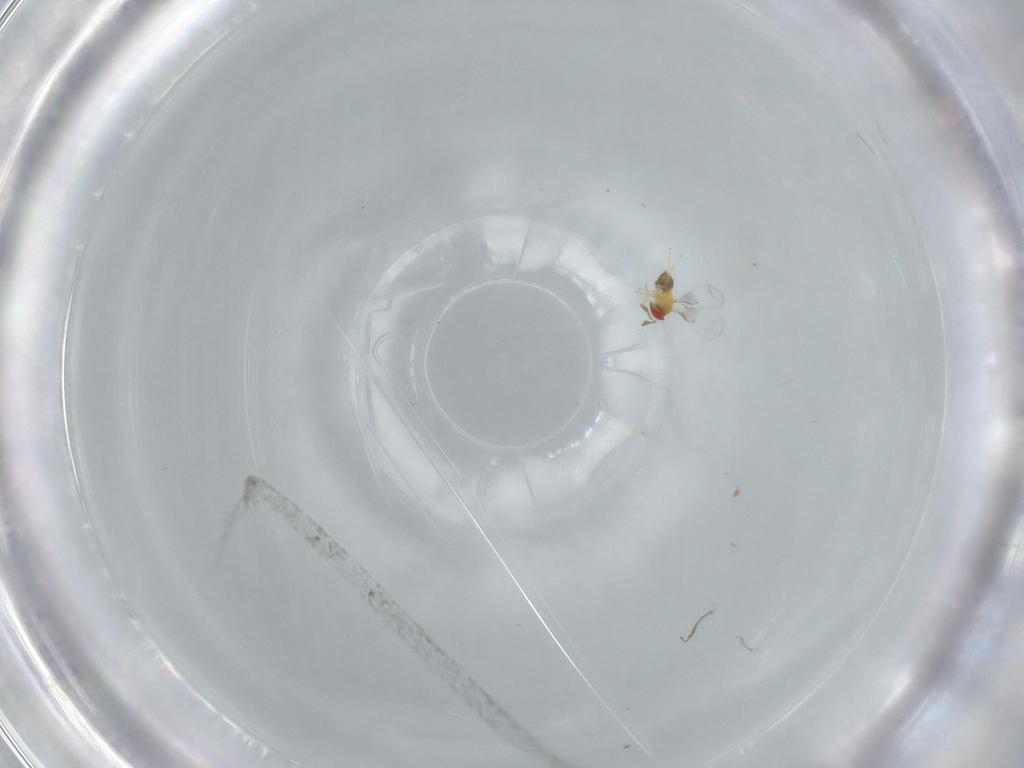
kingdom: Animalia
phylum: Arthropoda
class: Insecta
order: Hymenoptera
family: Trichogrammatidae
